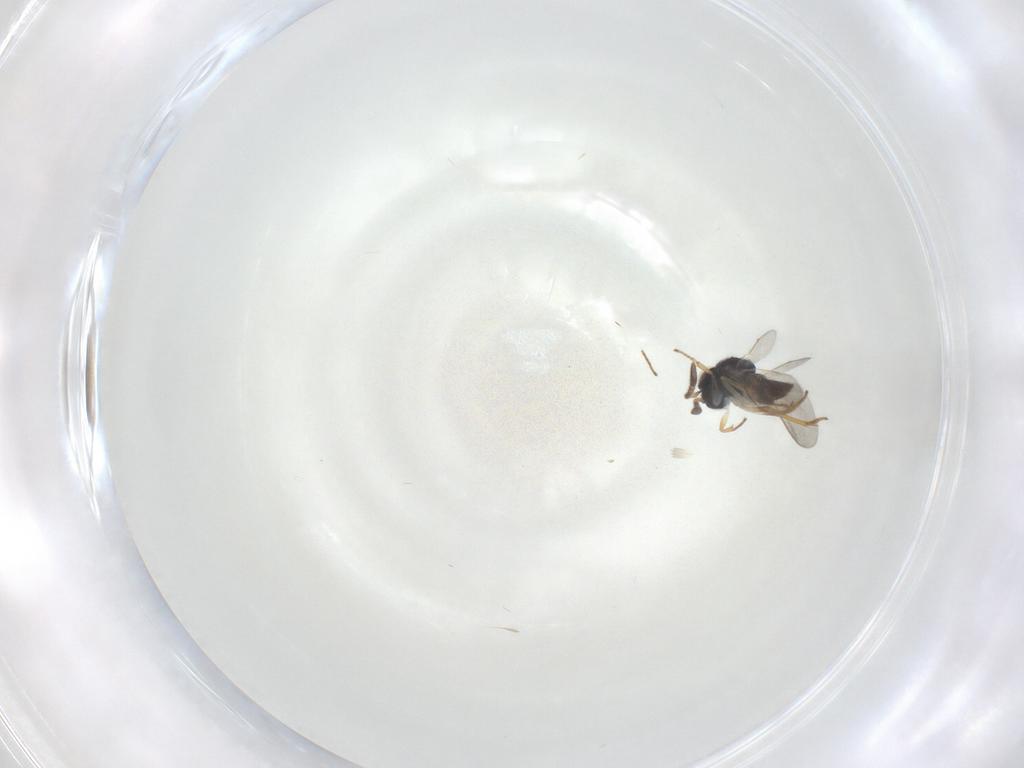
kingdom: Animalia
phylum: Arthropoda
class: Insecta
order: Hymenoptera
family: Encyrtidae
